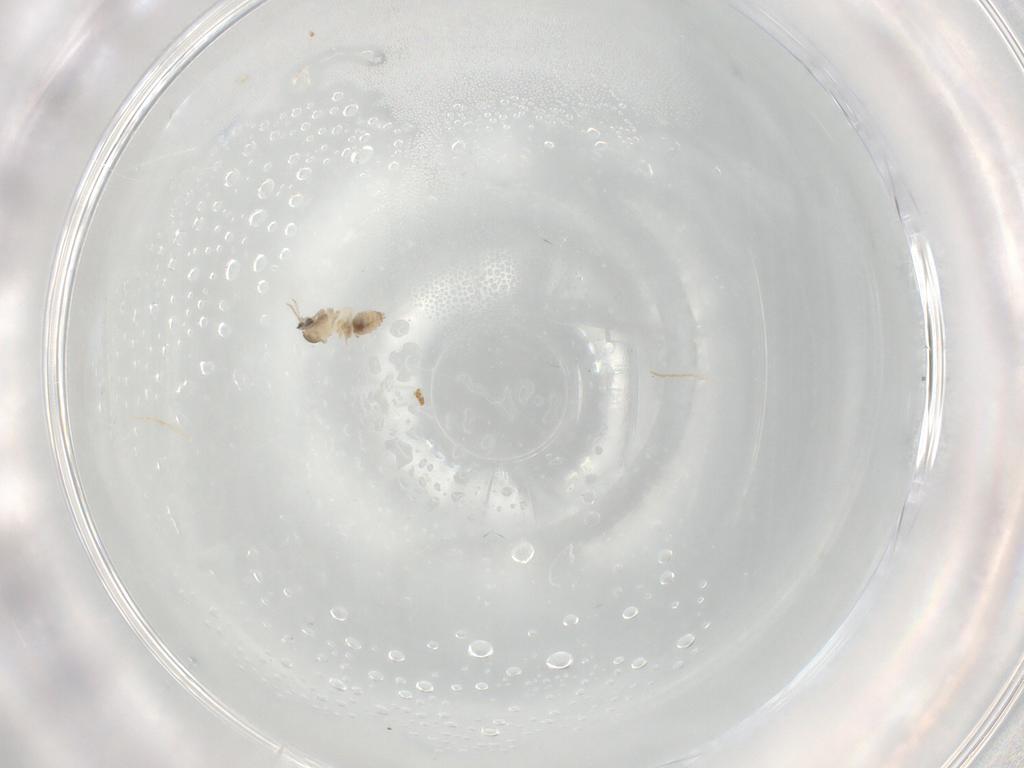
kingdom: Animalia
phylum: Arthropoda
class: Insecta
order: Diptera
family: Cecidomyiidae
